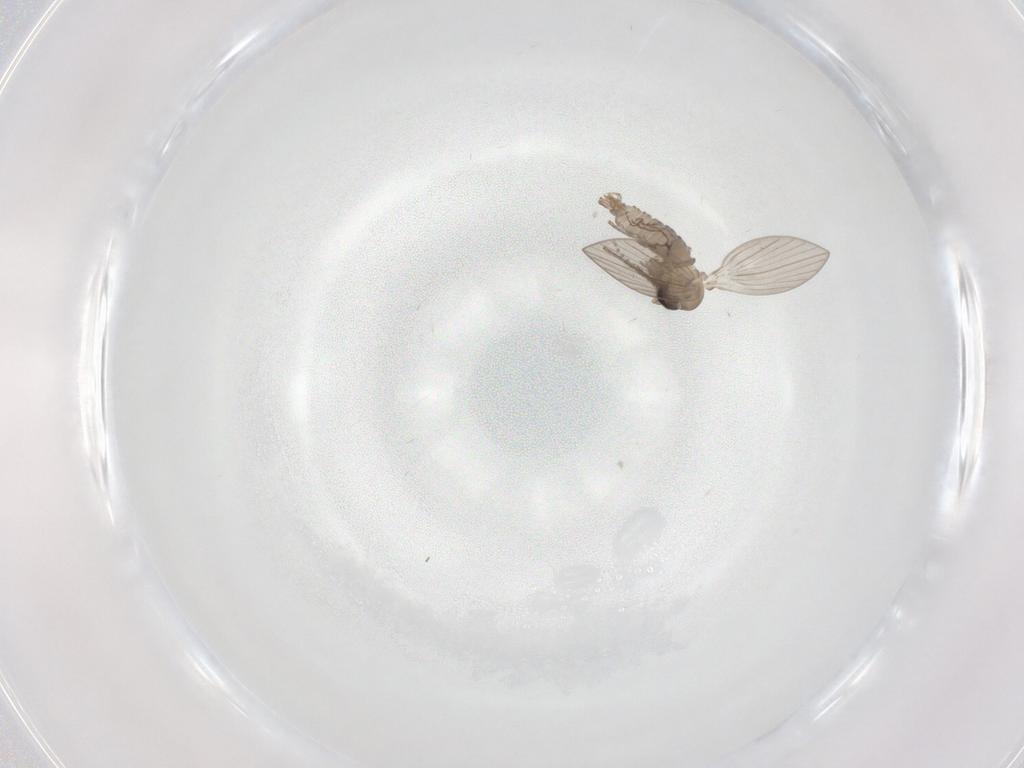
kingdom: Animalia
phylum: Arthropoda
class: Insecta
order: Diptera
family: Psychodidae
